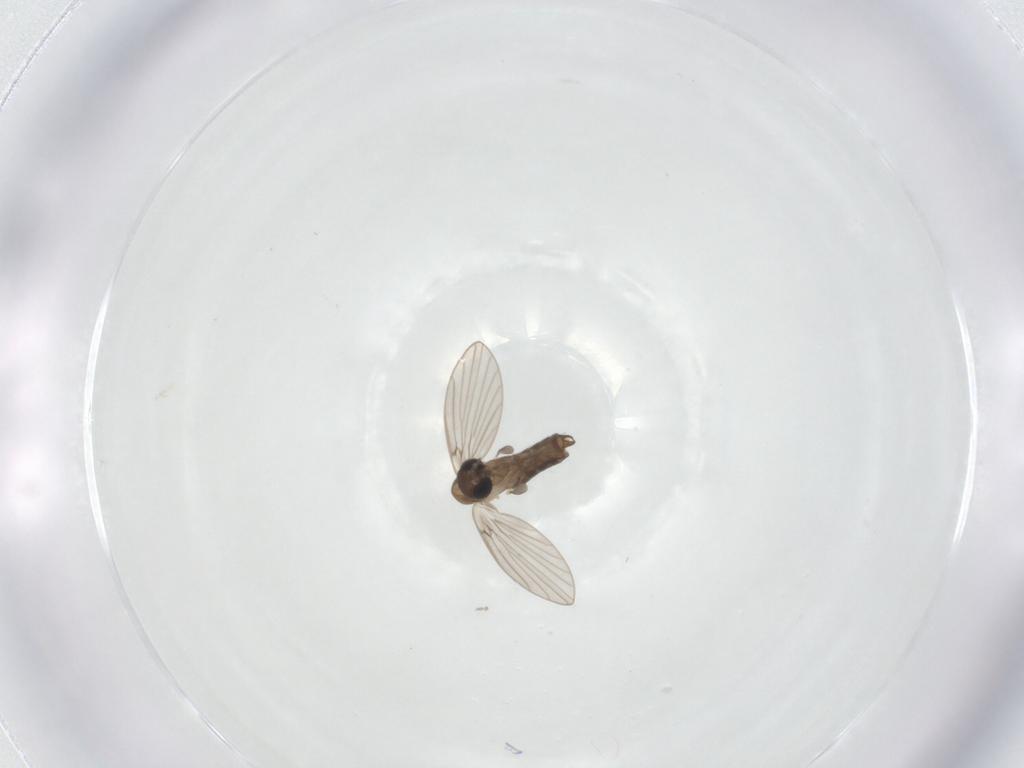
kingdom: Animalia
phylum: Arthropoda
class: Insecta
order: Diptera
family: Psychodidae
